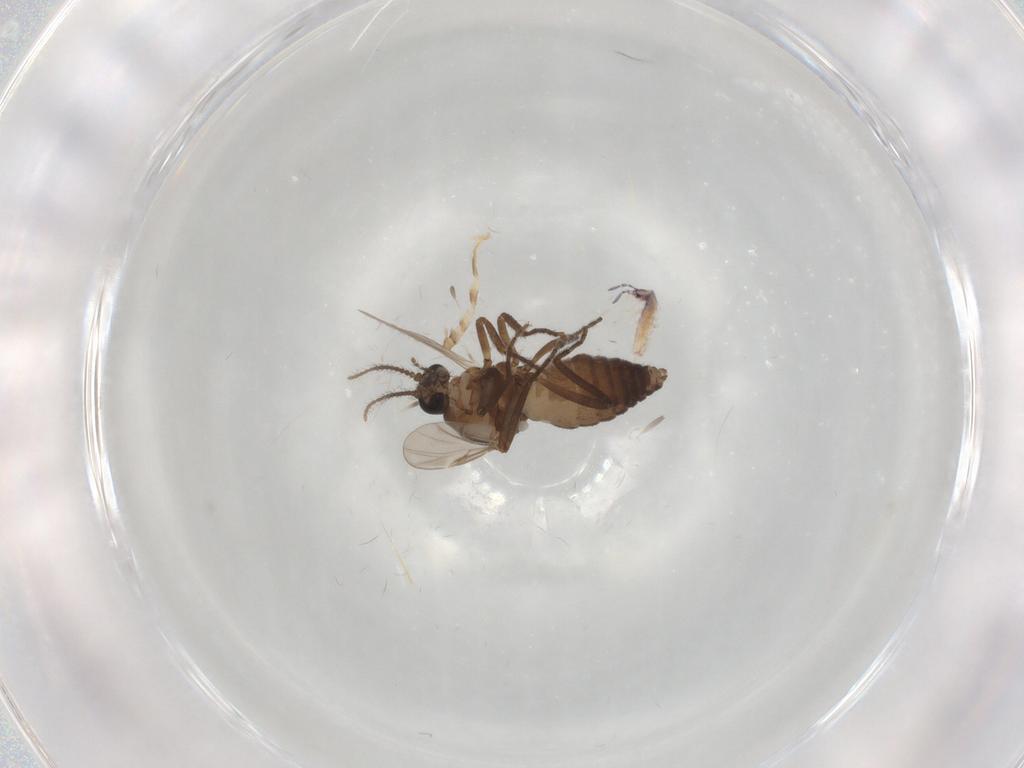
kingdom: Animalia
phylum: Arthropoda
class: Insecta
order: Diptera
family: Ceratopogonidae
